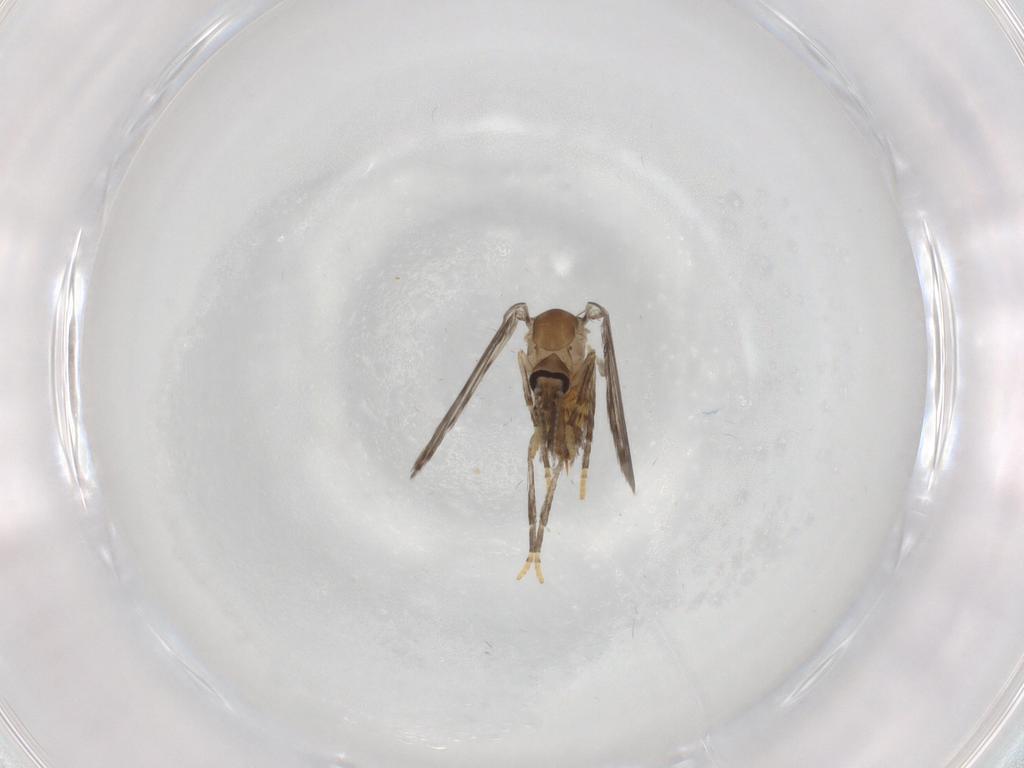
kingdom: Animalia
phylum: Arthropoda
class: Insecta
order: Diptera
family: Psychodidae
